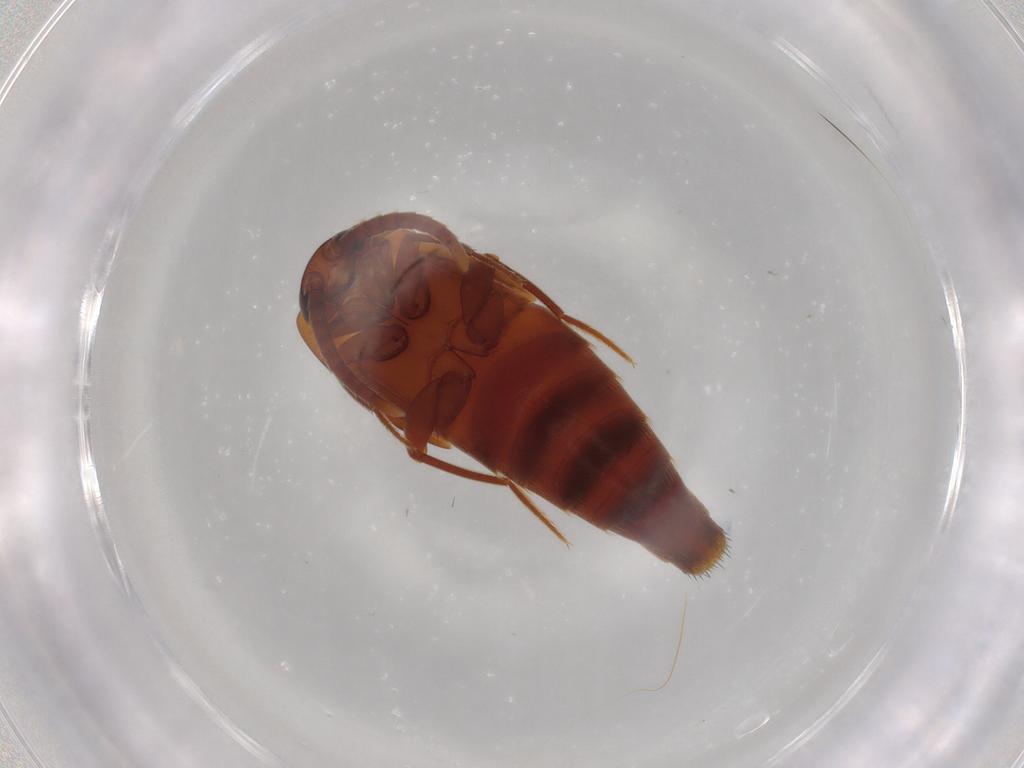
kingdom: Animalia
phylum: Arthropoda
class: Insecta
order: Coleoptera
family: Staphylinidae
